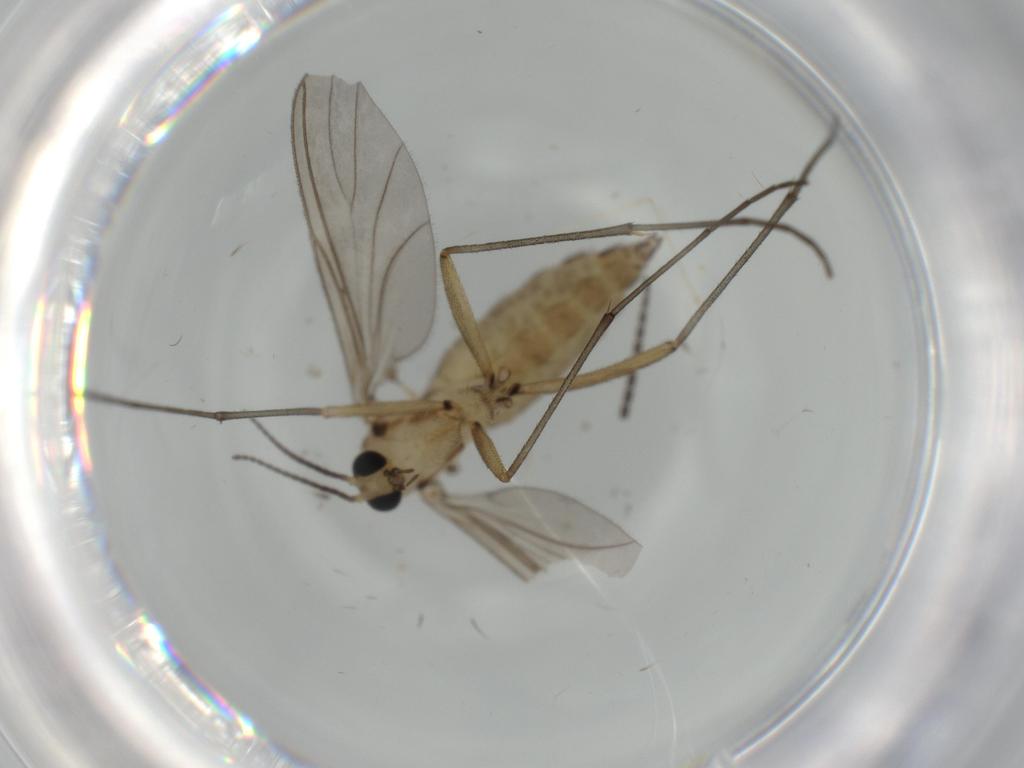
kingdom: Animalia
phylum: Arthropoda
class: Insecta
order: Diptera
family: Sciaridae
